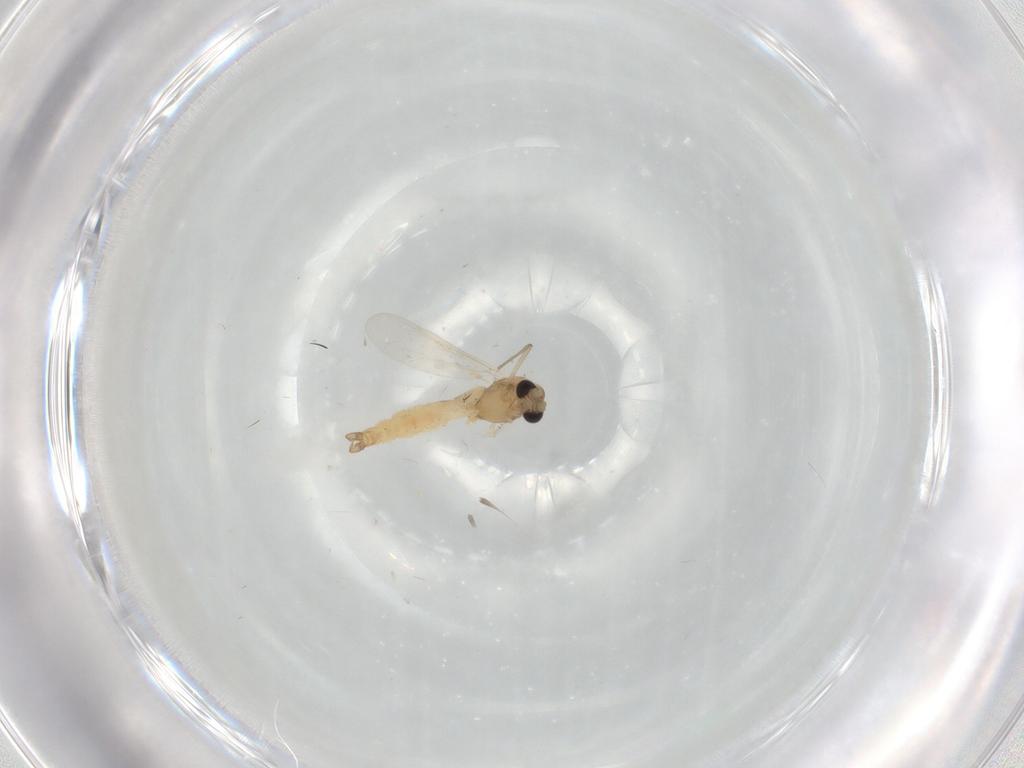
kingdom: Animalia
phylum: Arthropoda
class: Insecta
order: Diptera
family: Chironomidae
